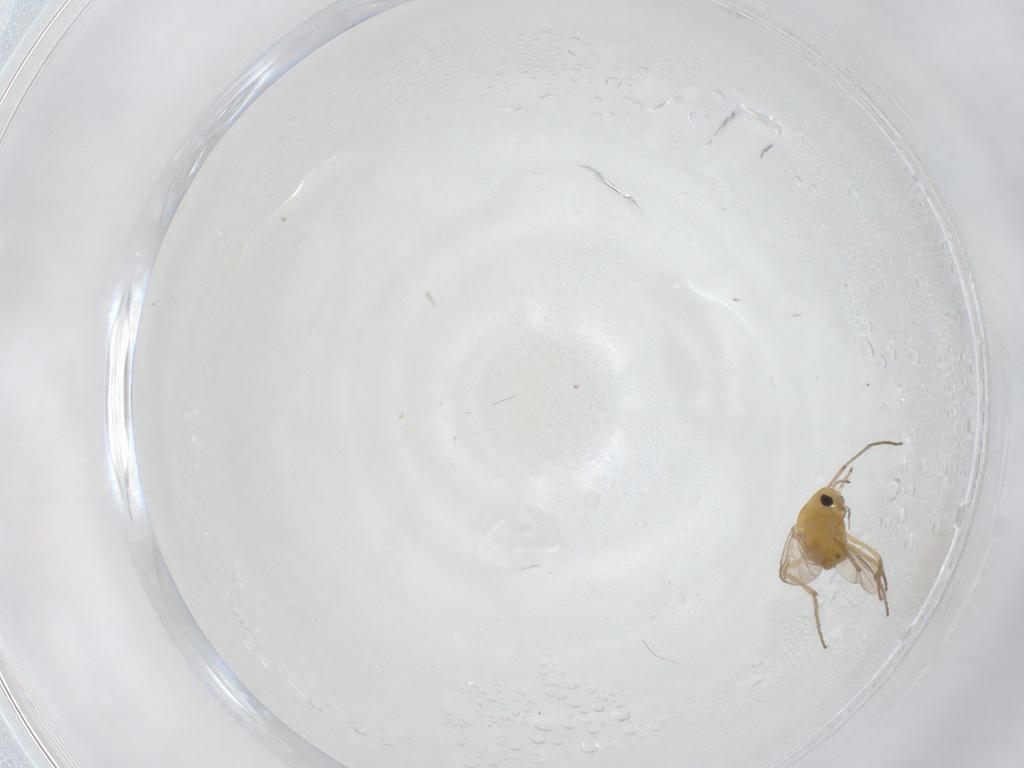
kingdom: Animalia
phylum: Arthropoda
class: Insecta
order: Diptera
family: Chironomidae
